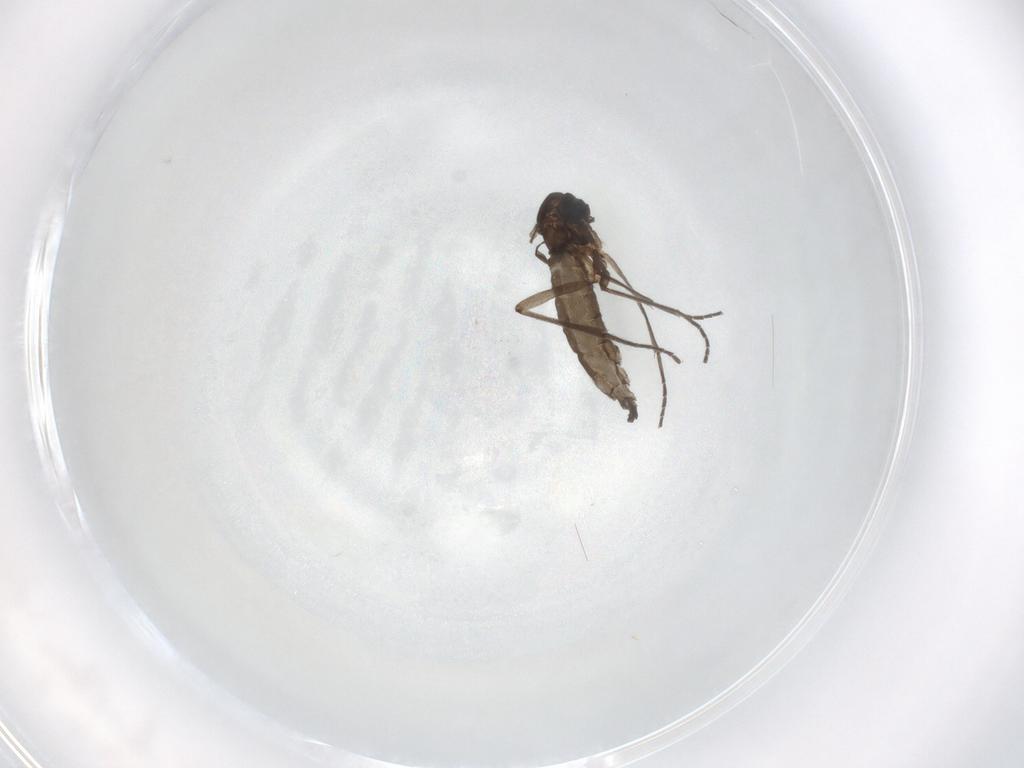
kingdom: Animalia
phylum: Arthropoda
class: Insecta
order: Diptera
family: Sciaridae
